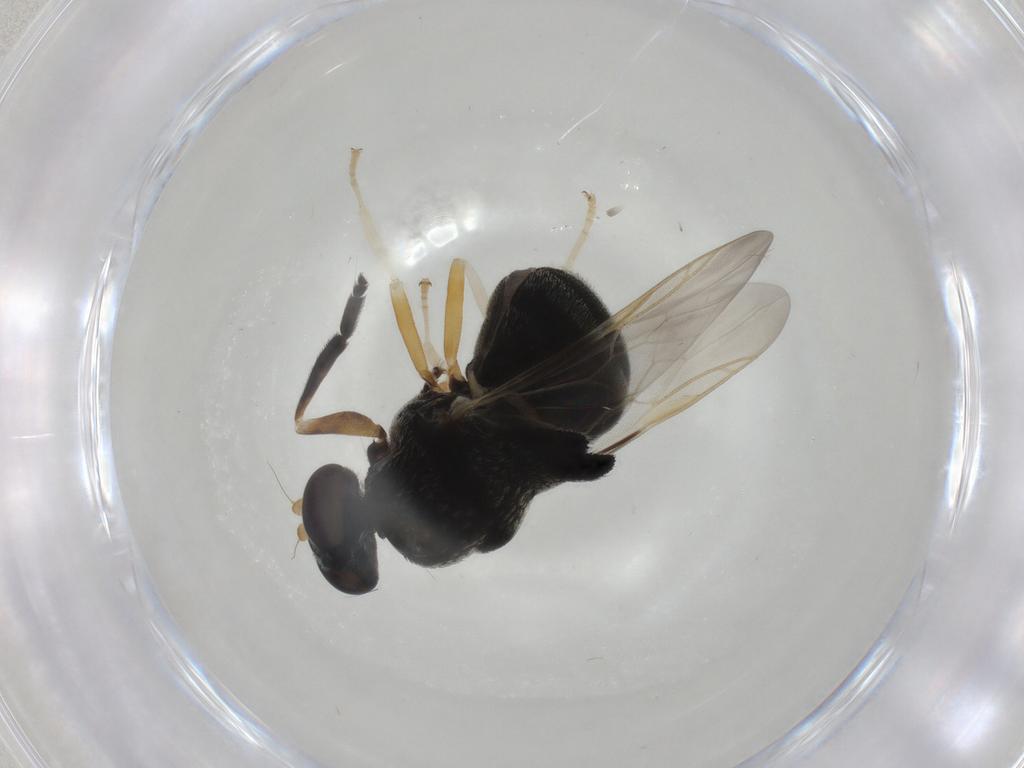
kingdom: Animalia
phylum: Arthropoda
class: Insecta
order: Diptera
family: Stratiomyidae
